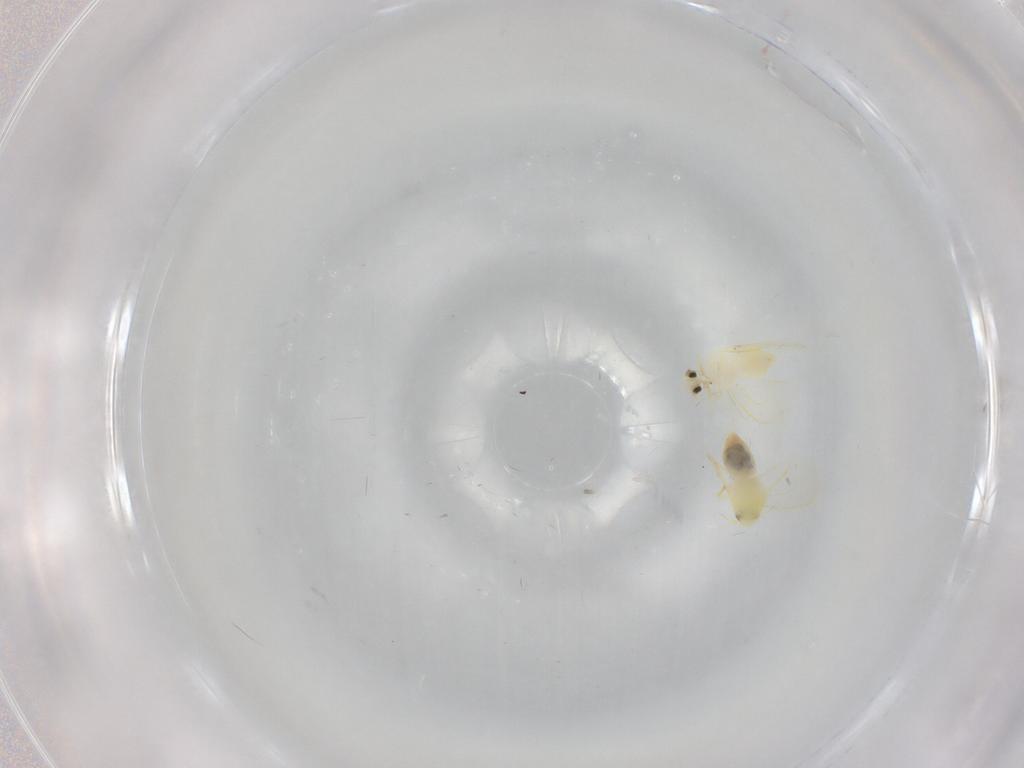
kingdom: Animalia
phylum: Arthropoda
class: Insecta
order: Hemiptera
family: Aleyrodidae
